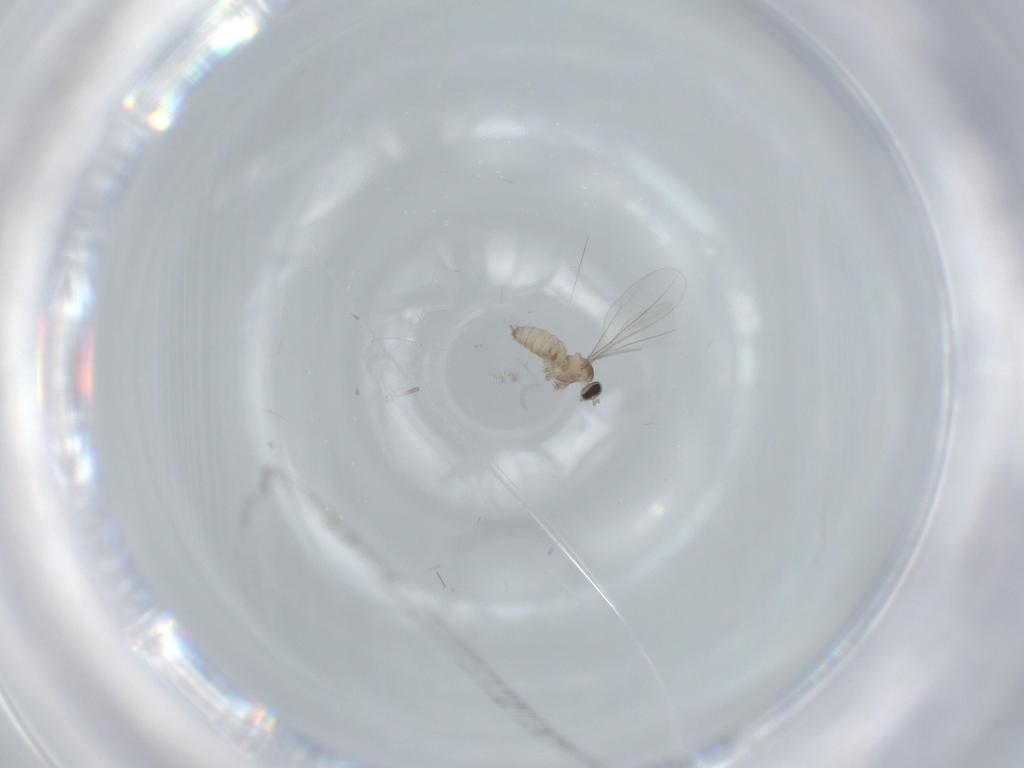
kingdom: Animalia
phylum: Arthropoda
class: Insecta
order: Diptera
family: Cecidomyiidae
